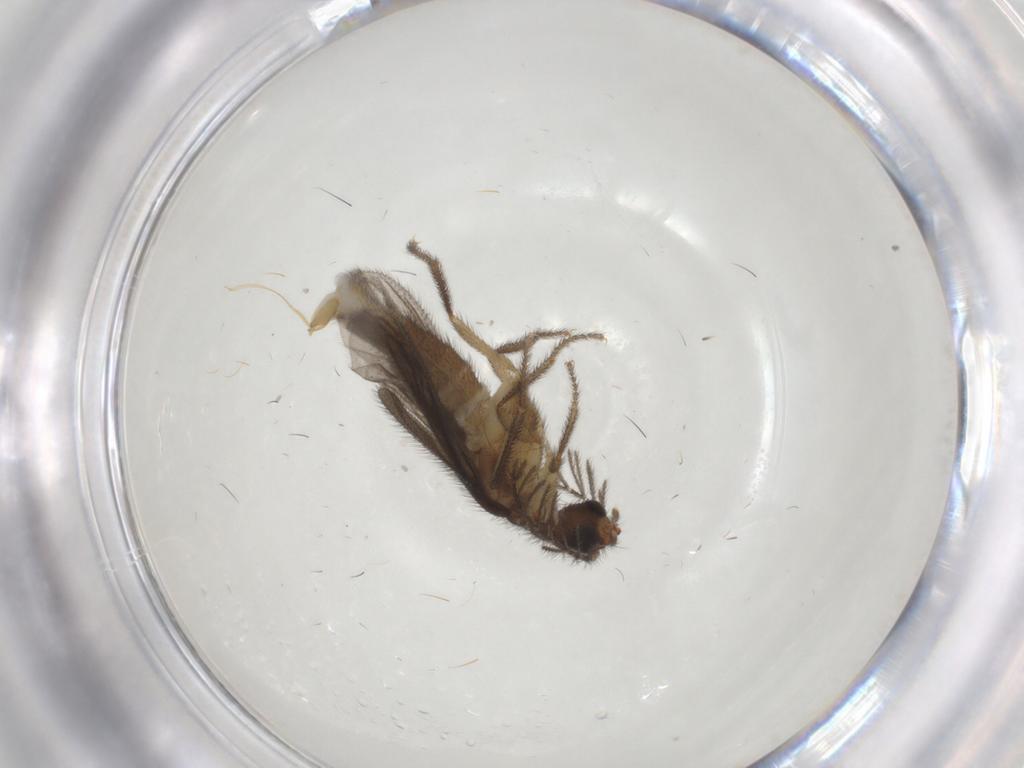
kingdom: Animalia
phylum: Arthropoda
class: Insecta
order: Coleoptera
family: Phengodidae
